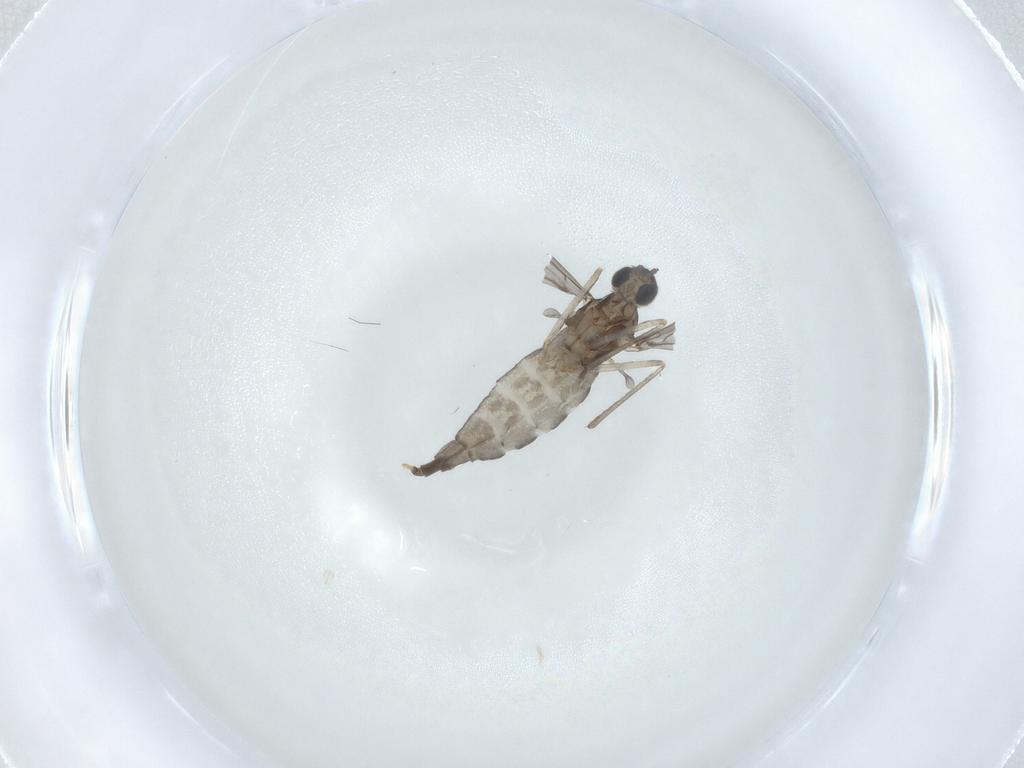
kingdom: Animalia
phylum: Arthropoda
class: Insecta
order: Hemiptera
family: Aleyrodidae
